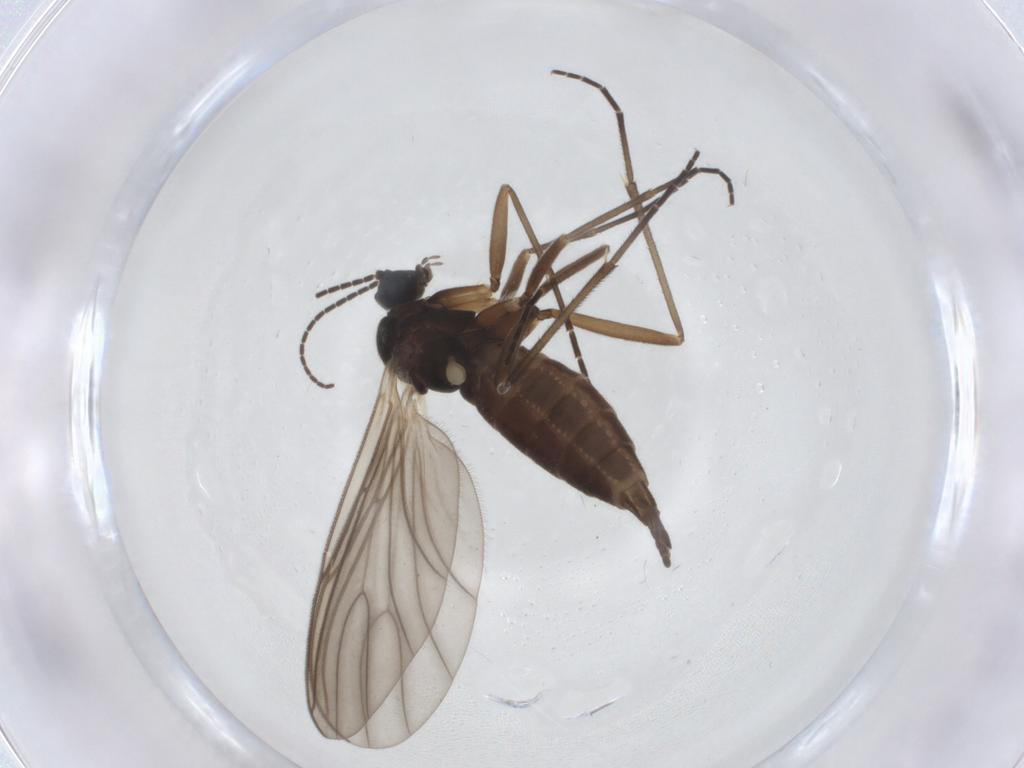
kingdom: Animalia
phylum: Arthropoda
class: Insecta
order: Diptera
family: Sciaridae
